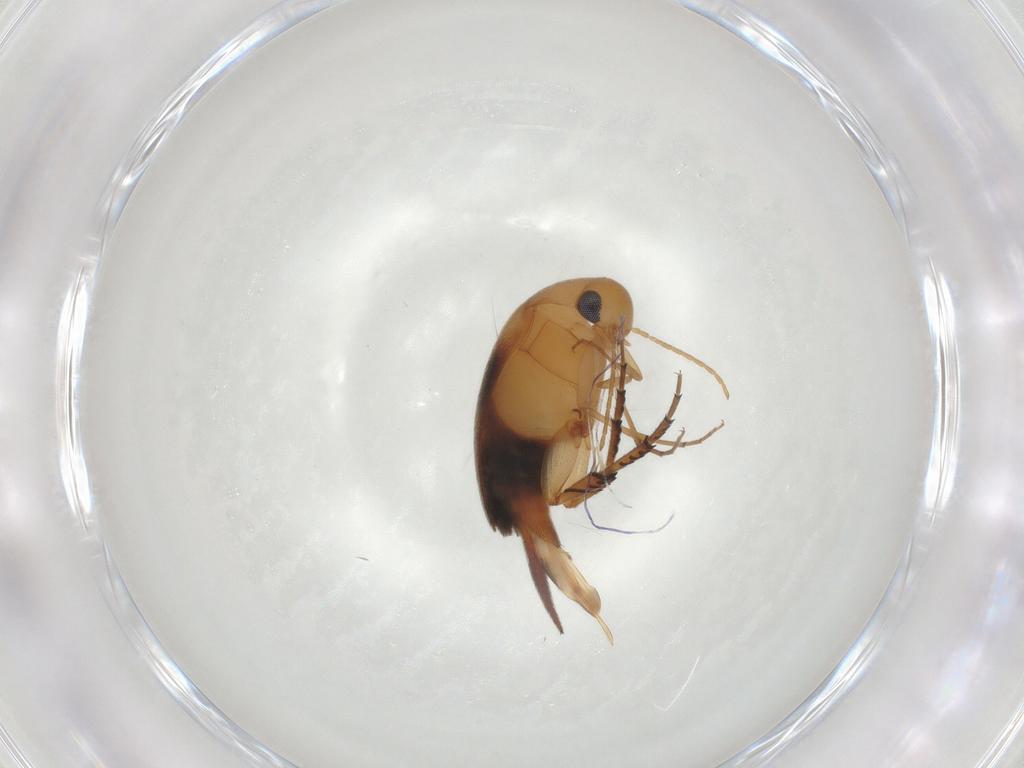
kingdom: Animalia
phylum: Arthropoda
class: Insecta
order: Coleoptera
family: Mordellidae
